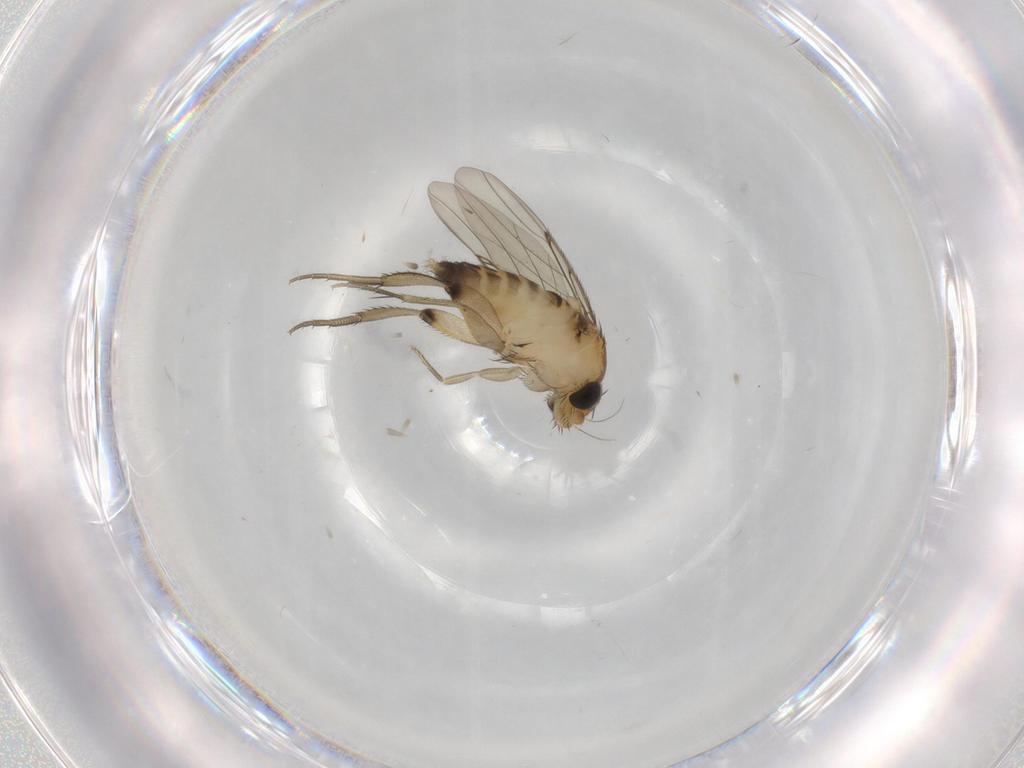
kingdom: Animalia
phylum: Arthropoda
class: Insecta
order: Diptera
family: Phoridae
